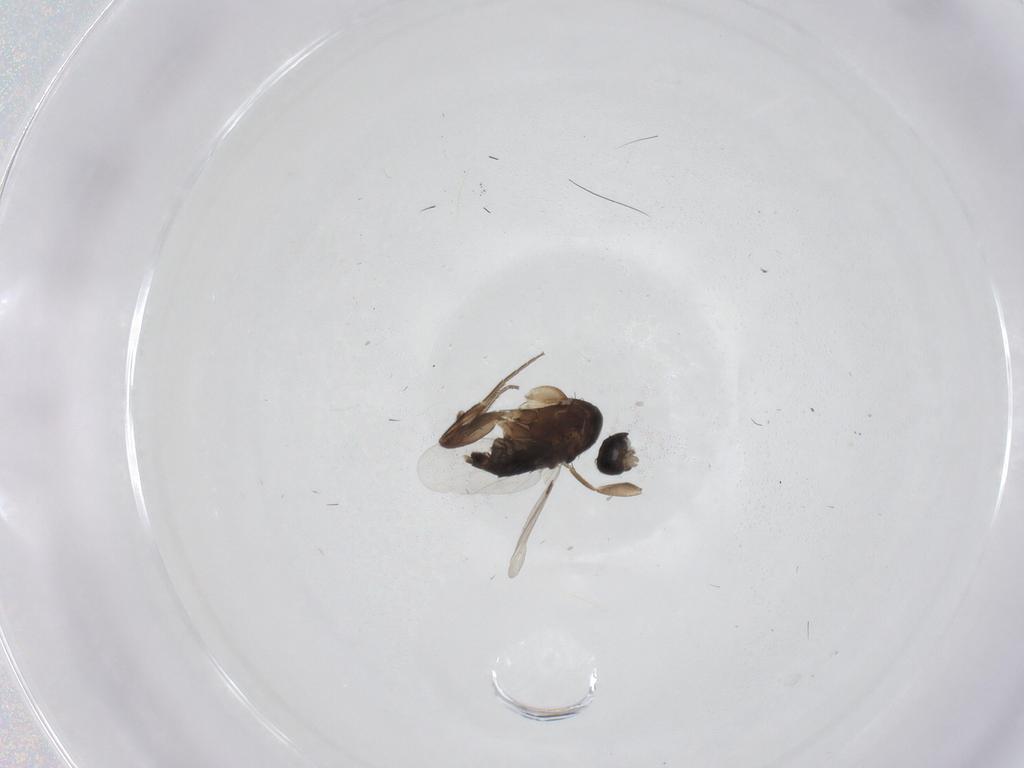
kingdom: Animalia
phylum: Arthropoda
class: Insecta
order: Diptera
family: Phoridae
